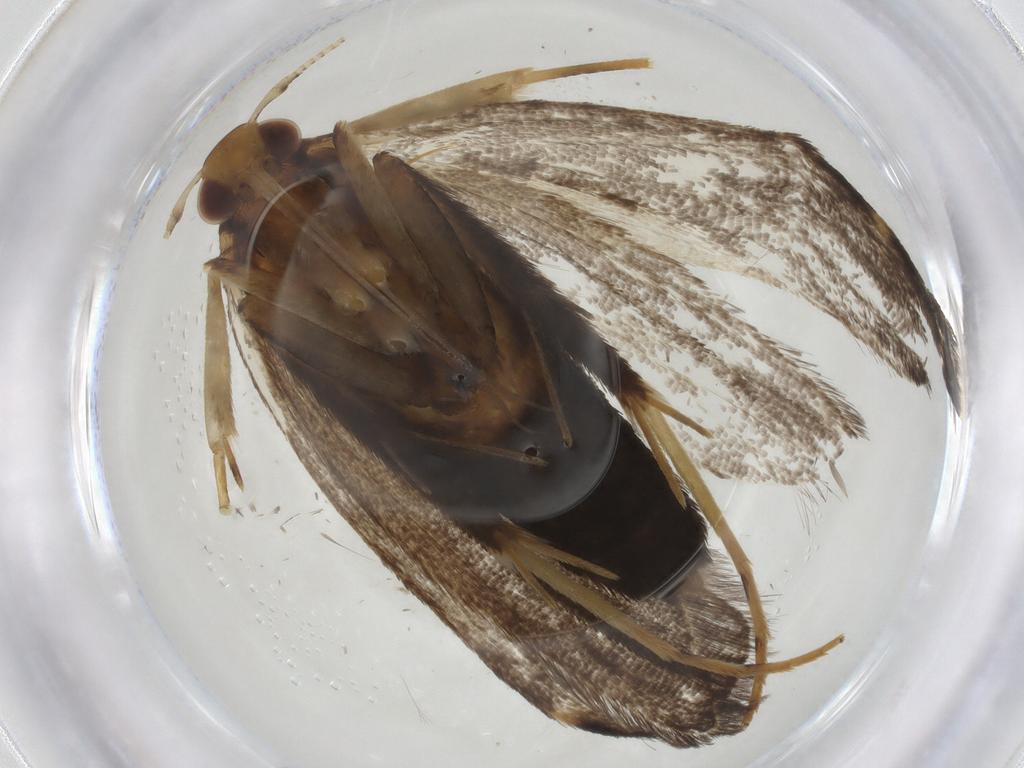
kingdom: Animalia
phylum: Arthropoda
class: Insecta
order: Lepidoptera
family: Lecithoceridae
